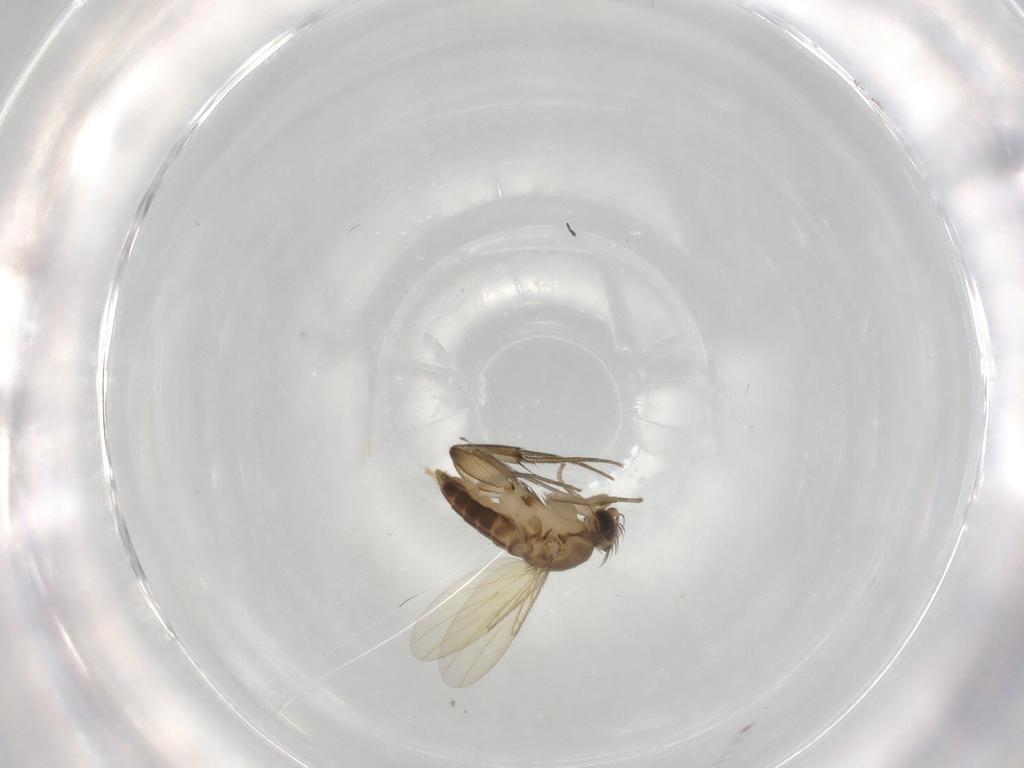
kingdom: Animalia
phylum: Arthropoda
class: Insecta
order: Diptera
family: Phoridae
